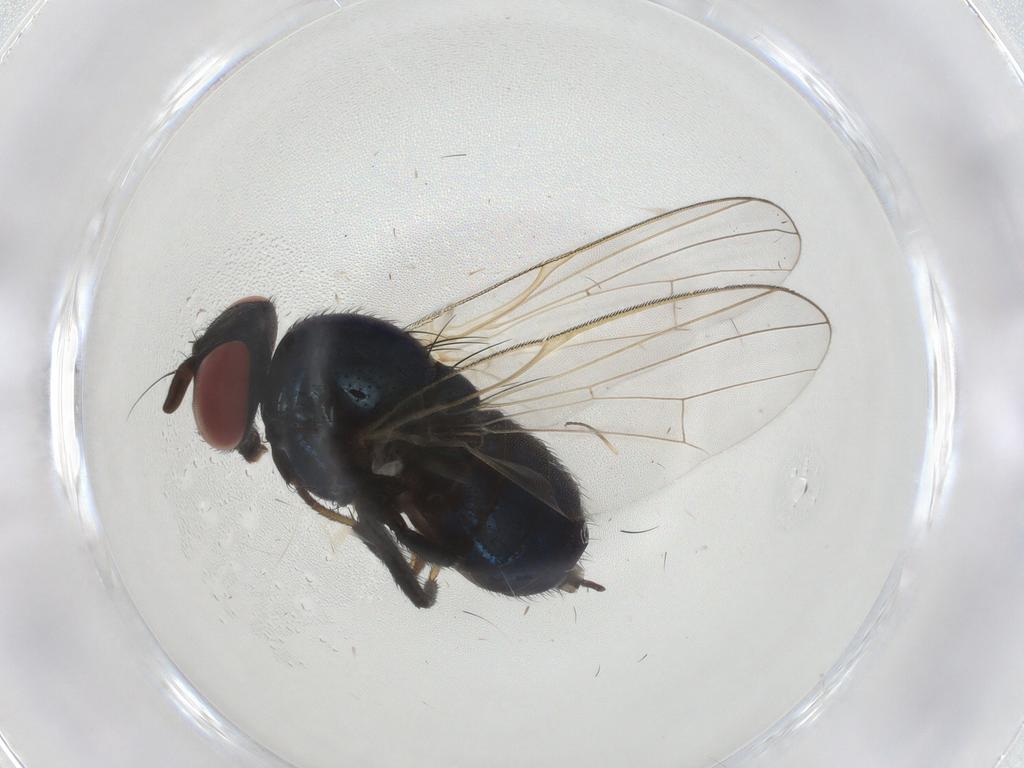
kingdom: Animalia
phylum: Arthropoda
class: Insecta
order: Diptera
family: Lonchaeidae
